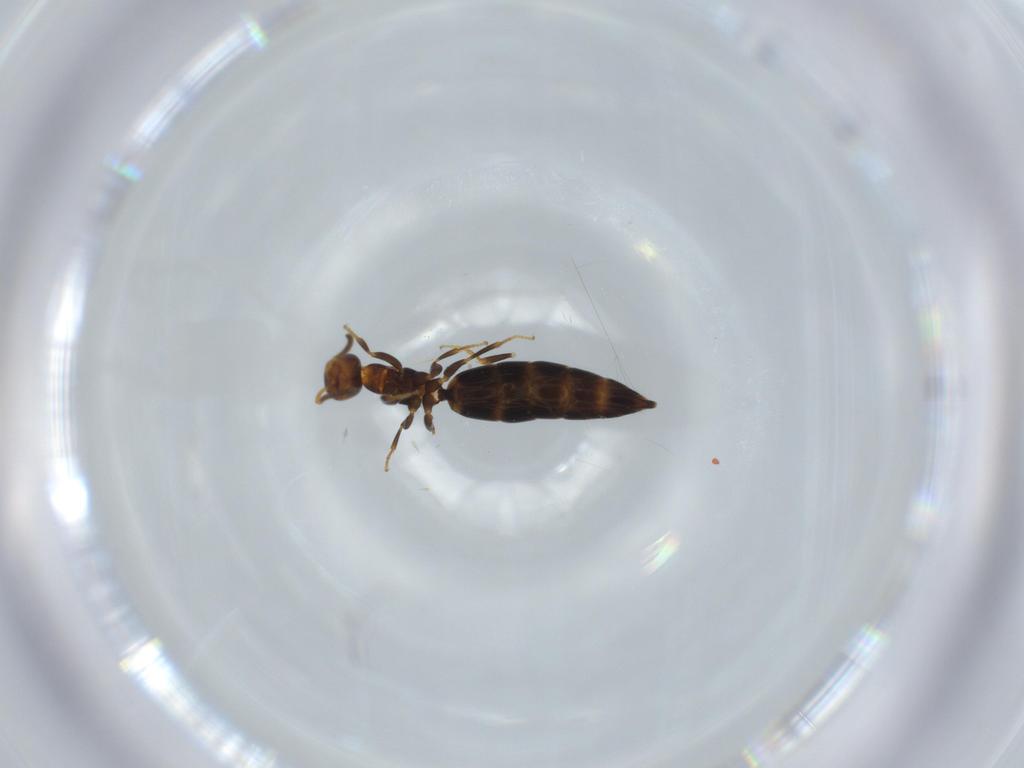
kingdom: Animalia
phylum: Arthropoda
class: Insecta
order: Hymenoptera
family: Bethylidae
